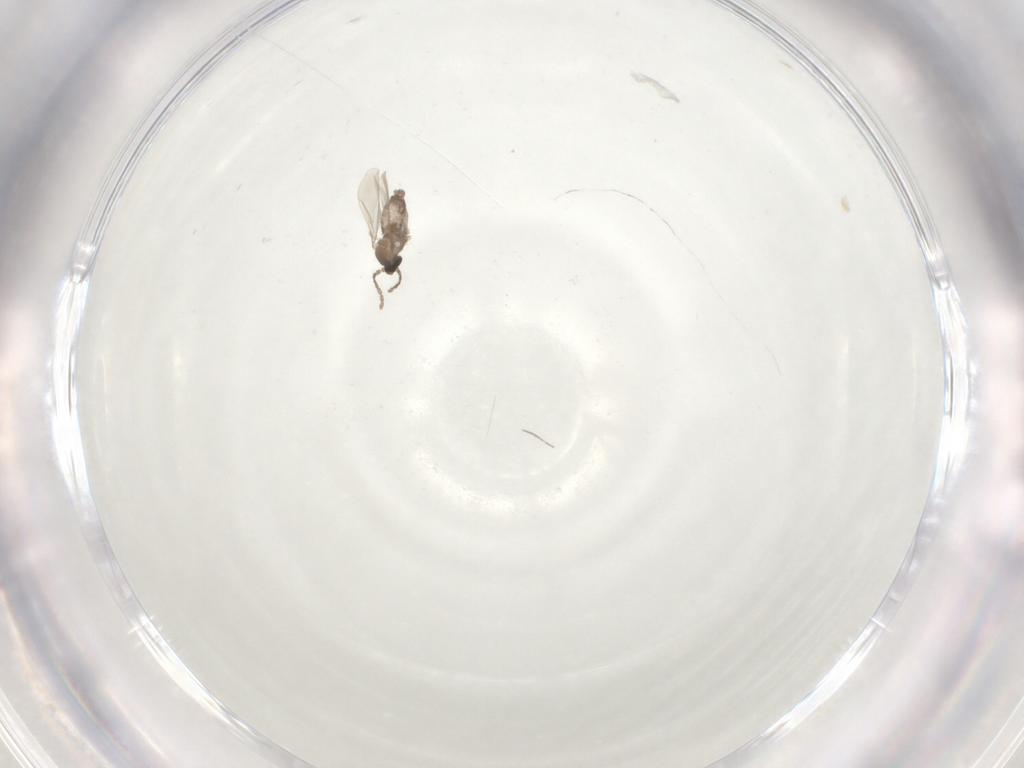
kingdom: Animalia
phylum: Arthropoda
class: Insecta
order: Diptera
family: Cecidomyiidae
